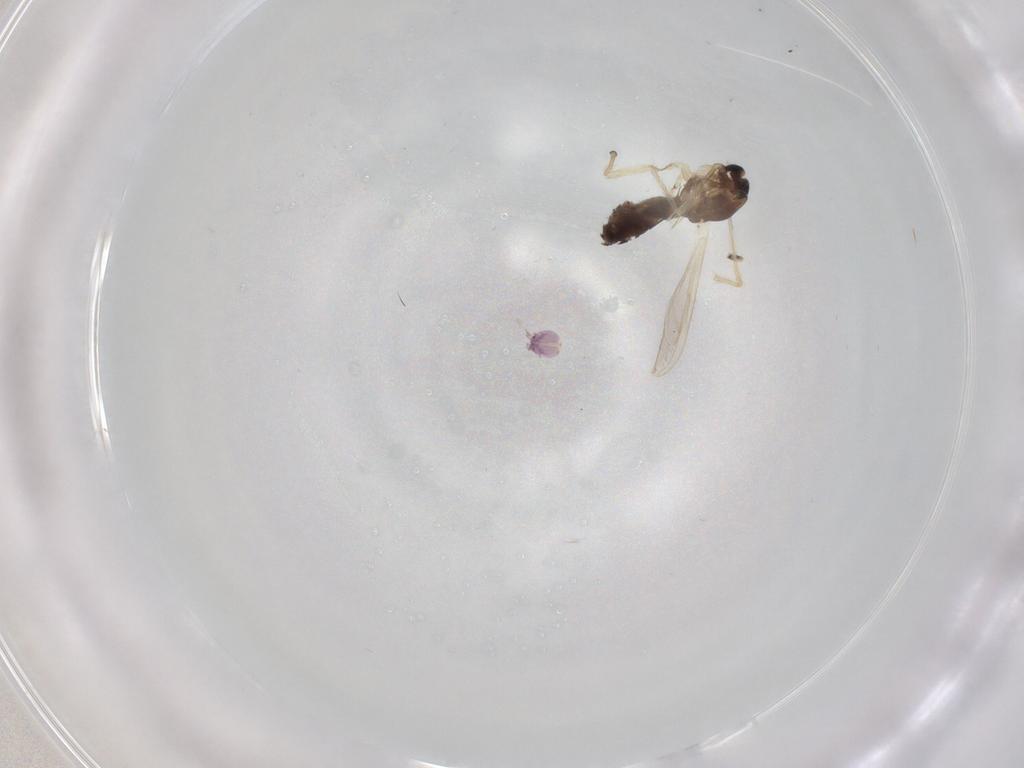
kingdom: Animalia
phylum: Arthropoda
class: Insecta
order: Diptera
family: Chironomidae
